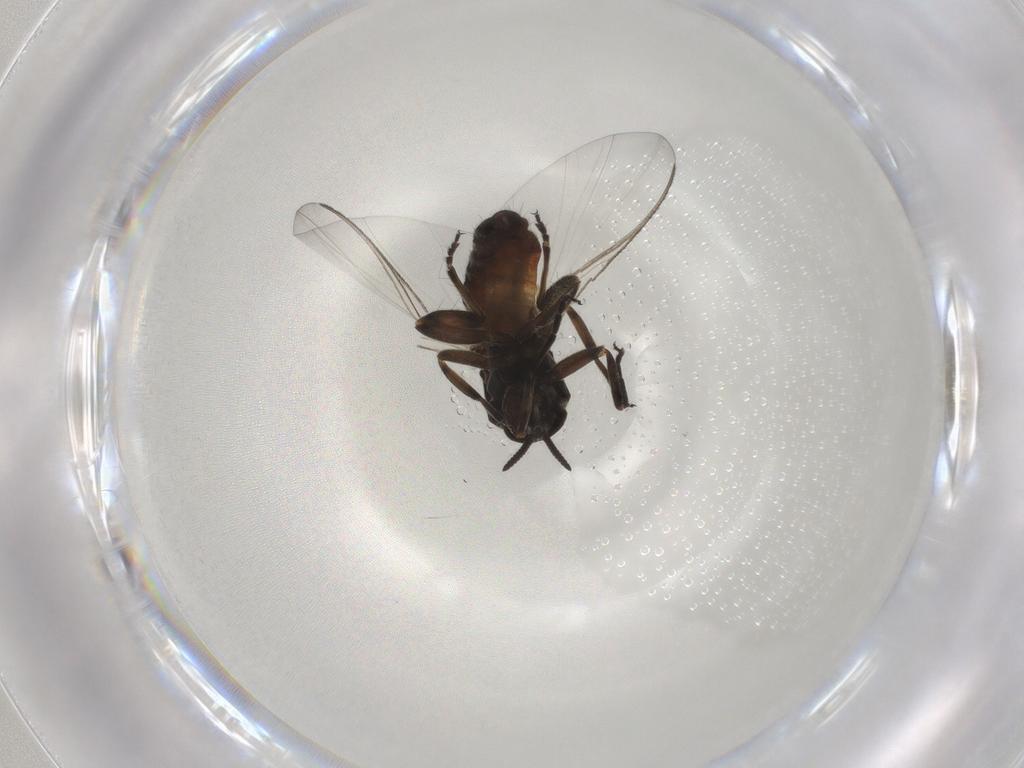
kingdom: Animalia
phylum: Arthropoda
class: Insecta
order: Diptera
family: Simuliidae
